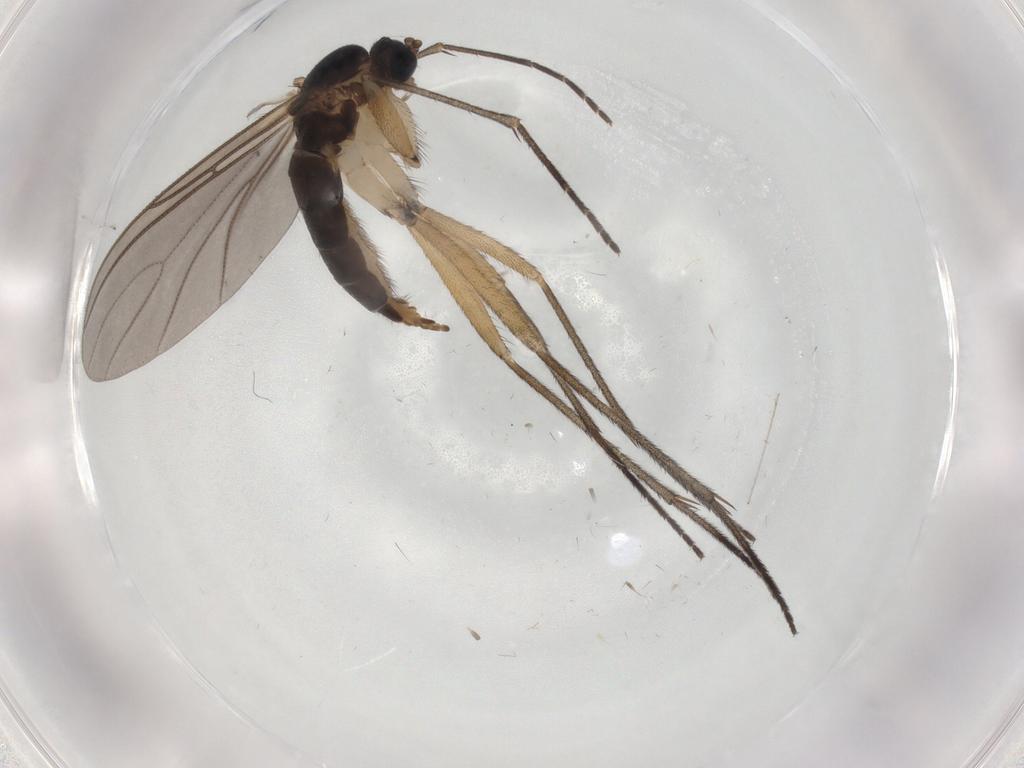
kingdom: Animalia
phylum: Arthropoda
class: Insecta
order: Diptera
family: Sciaridae
